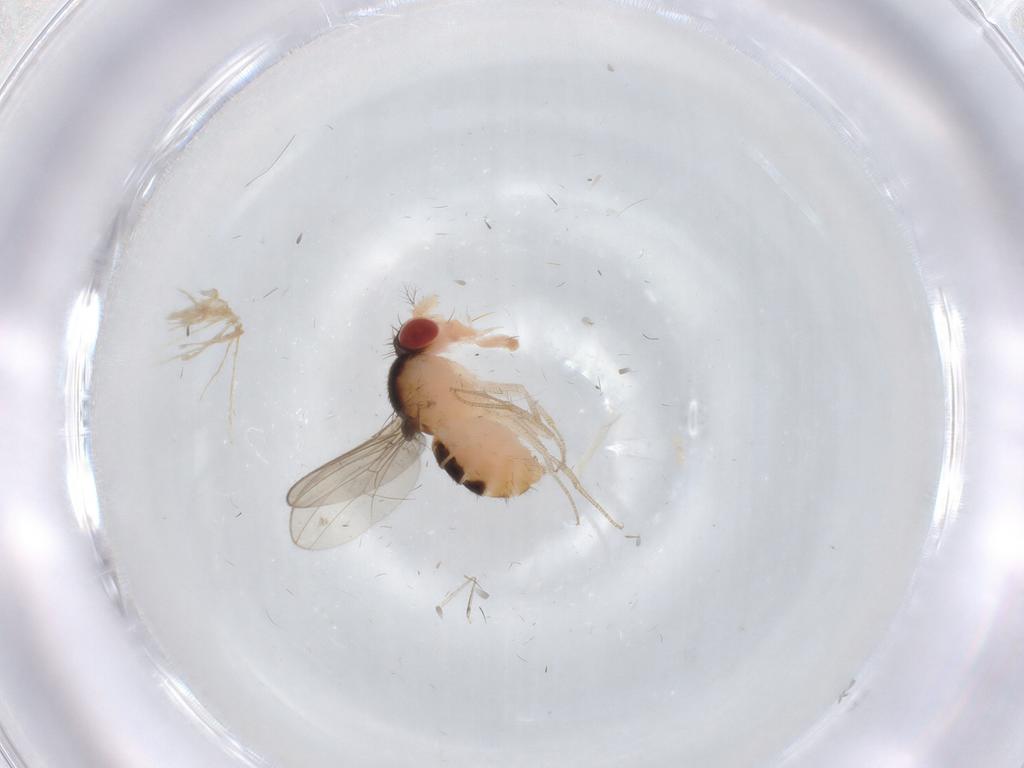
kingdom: Animalia
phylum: Arthropoda
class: Insecta
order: Diptera
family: Drosophilidae
